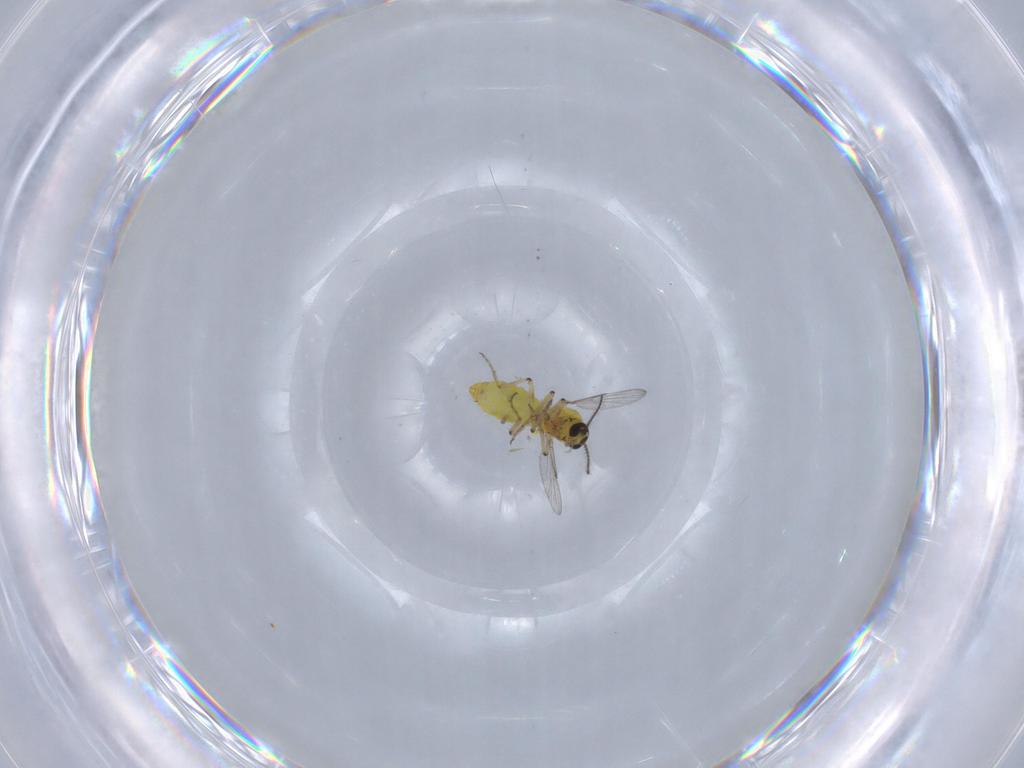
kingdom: Animalia
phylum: Arthropoda
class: Insecta
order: Diptera
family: Ceratopogonidae
